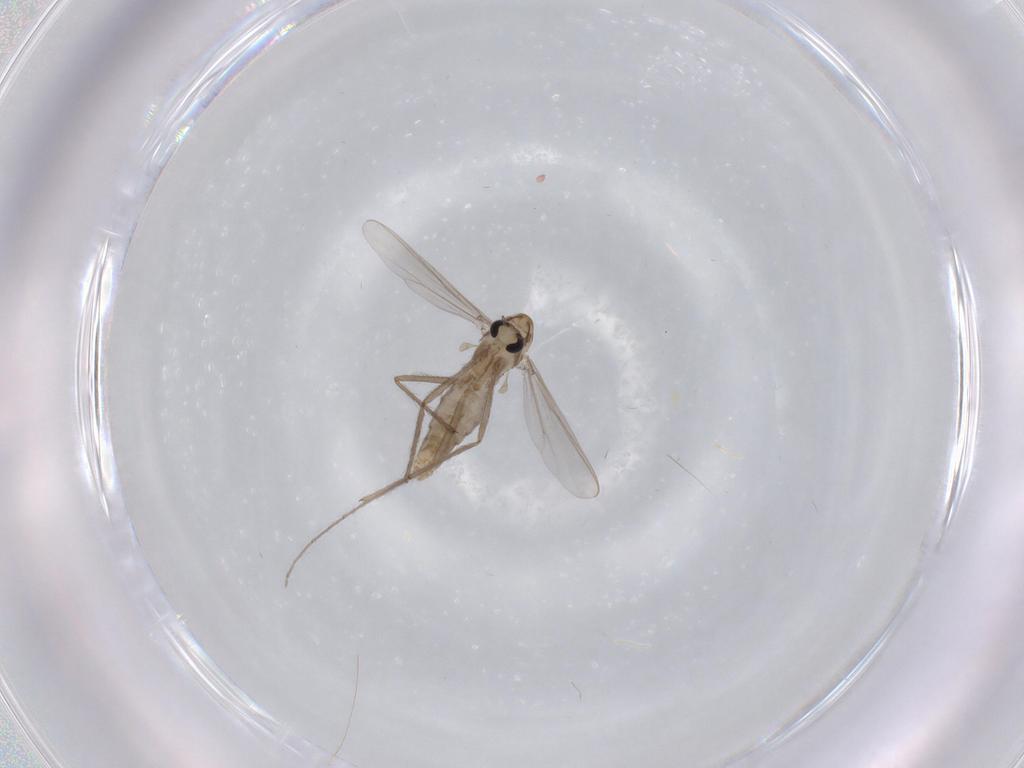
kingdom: Animalia
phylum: Arthropoda
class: Insecta
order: Diptera
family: Chironomidae
